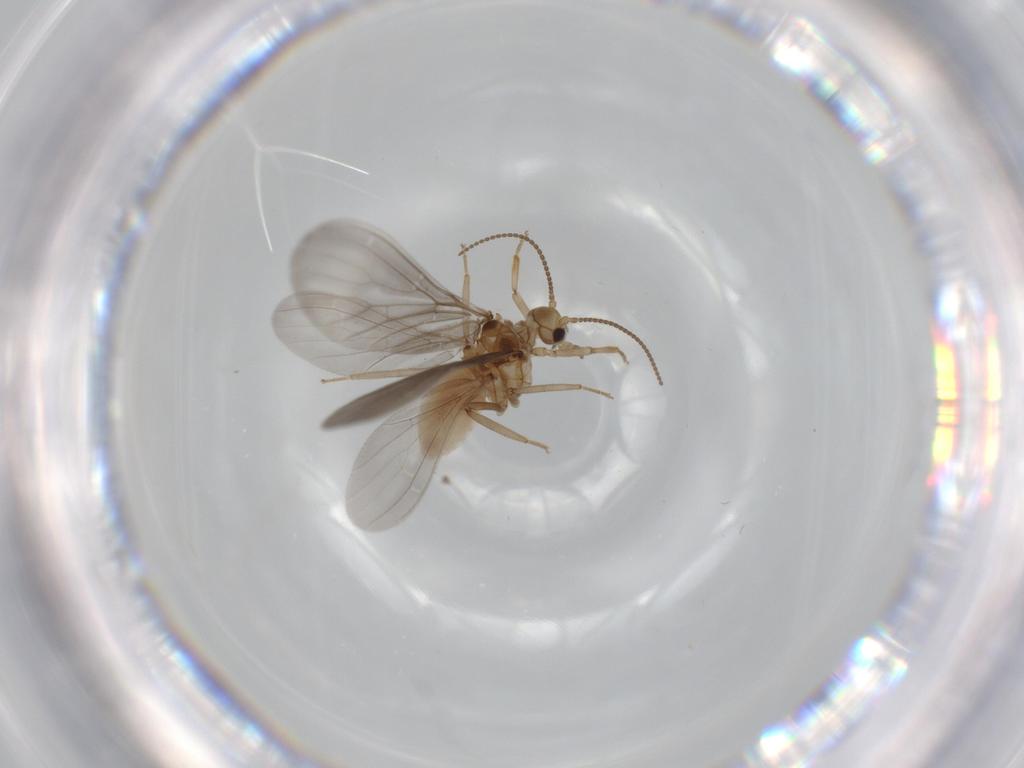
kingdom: Animalia
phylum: Arthropoda
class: Insecta
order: Neuroptera
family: Coniopterygidae
